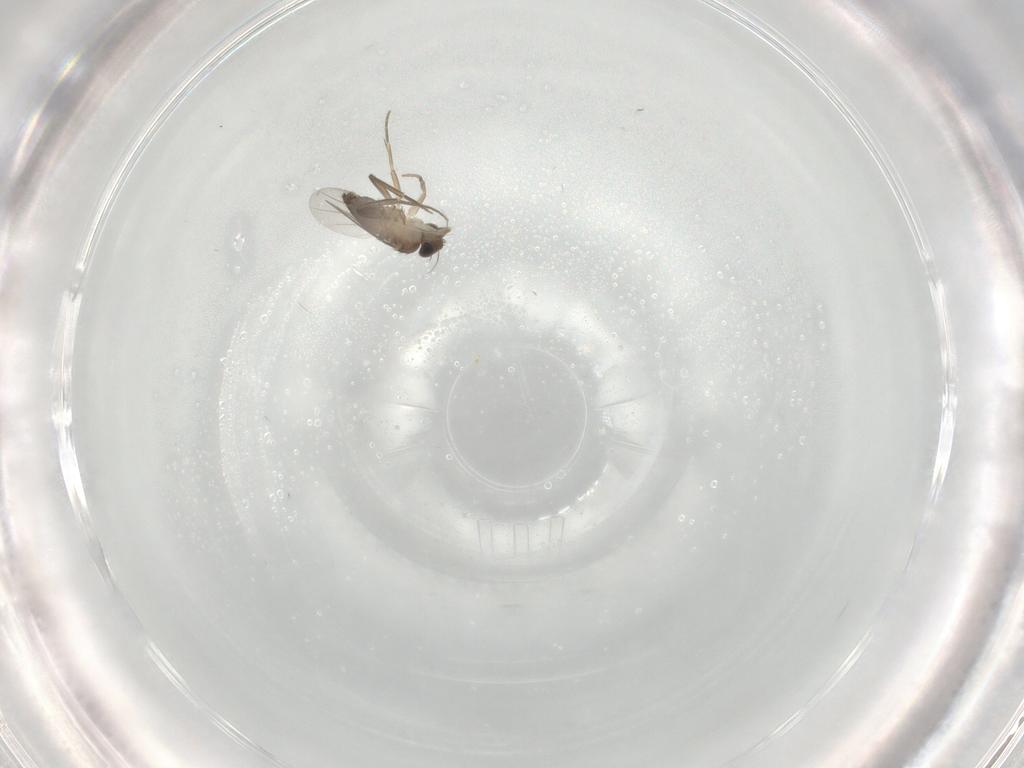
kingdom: Animalia
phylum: Arthropoda
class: Insecta
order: Diptera
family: Phoridae
